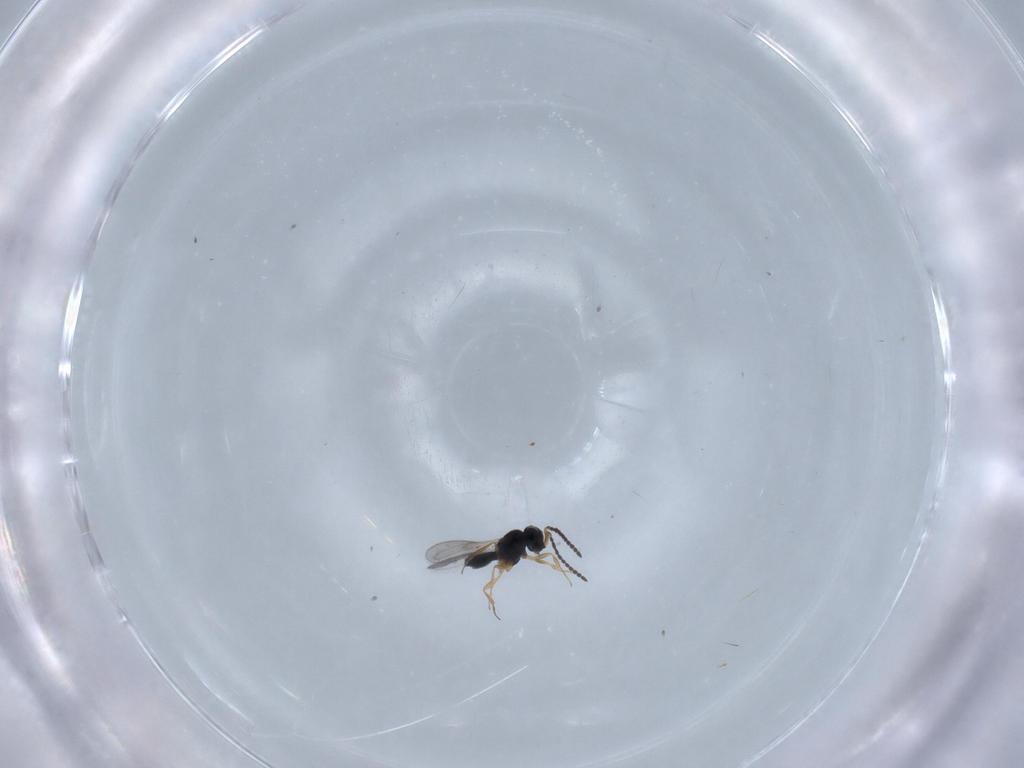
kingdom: Animalia
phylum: Arthropoda
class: Insecta
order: Hymenoptera
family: Scelionidae
